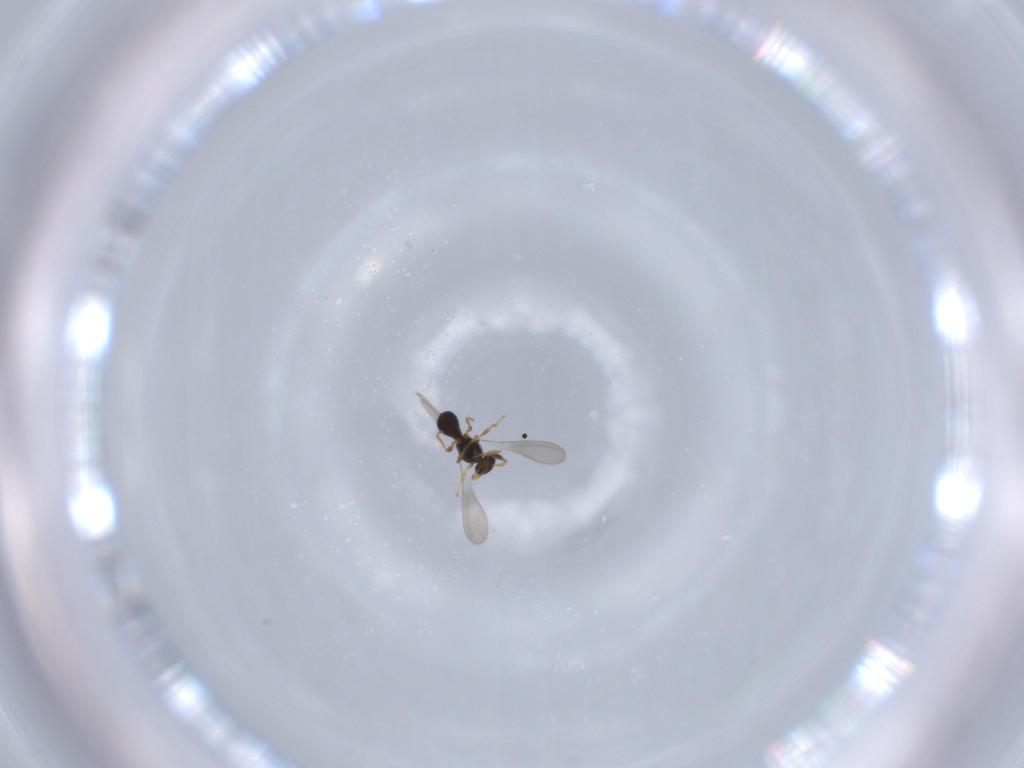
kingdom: Animalia
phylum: Arthropoda
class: Insecta
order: Hymenoptera
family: Platygastridae
